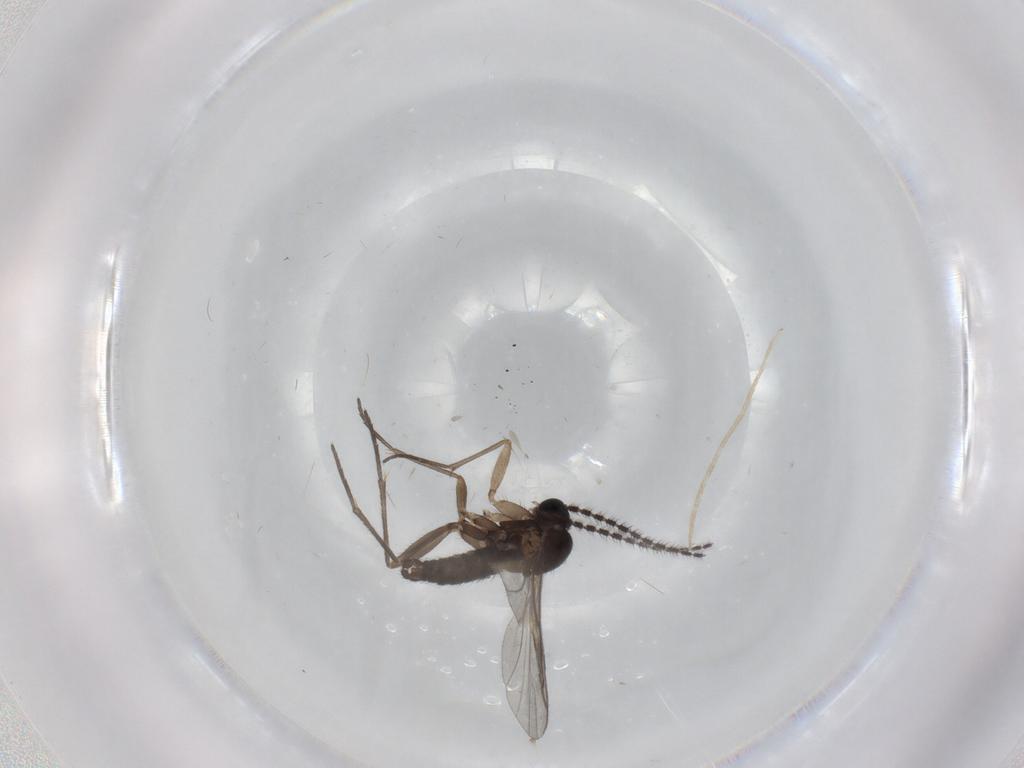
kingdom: Animalia
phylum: Arthropoda
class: Insecta
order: Diptera
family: Sciaridae
